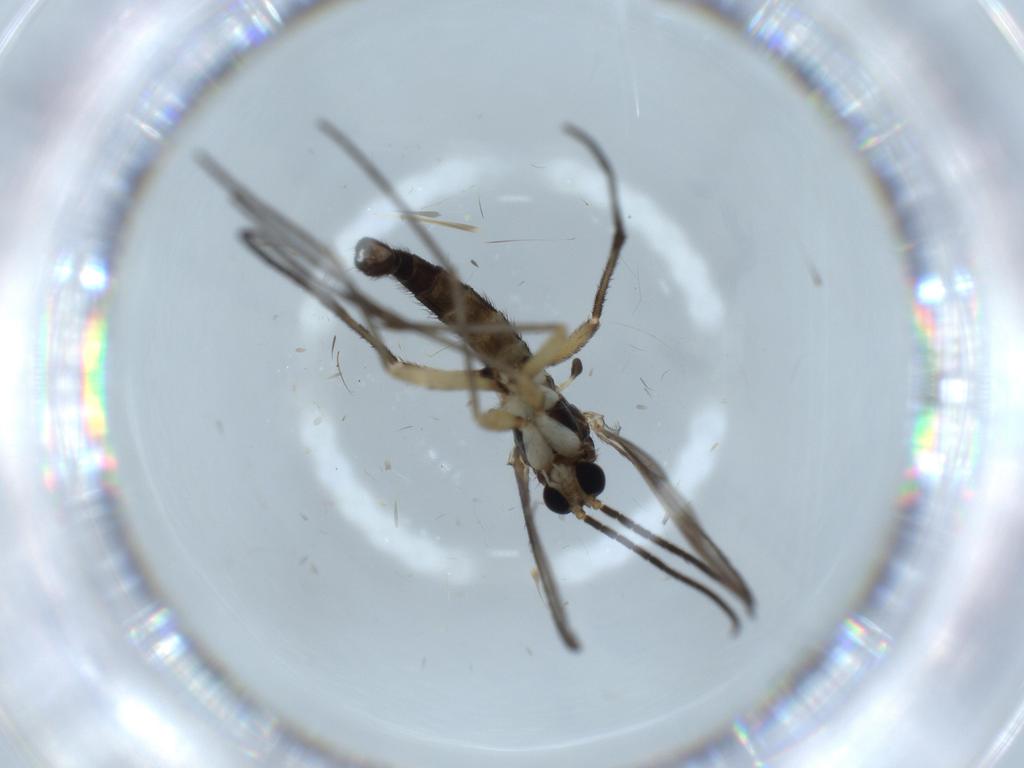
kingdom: Animalia
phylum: Arthropoda
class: Insecta
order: Diptera
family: Sciaridae
